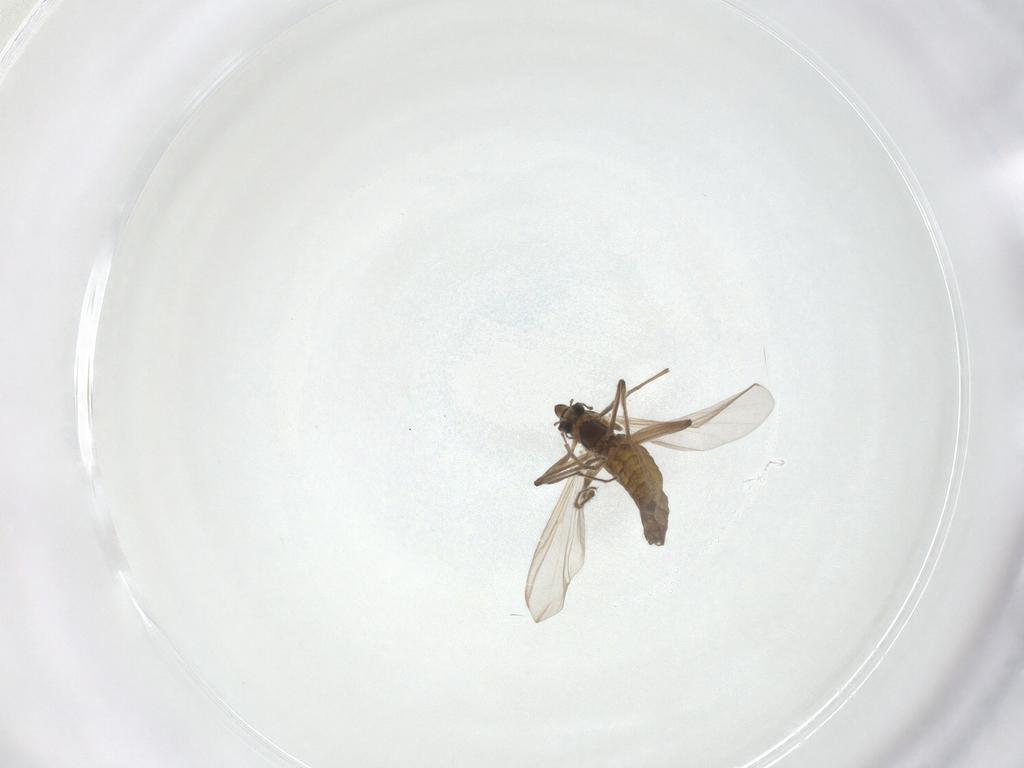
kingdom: Animalia
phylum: Arthropoda
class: Insecta
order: Diptera
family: Chironomidae
